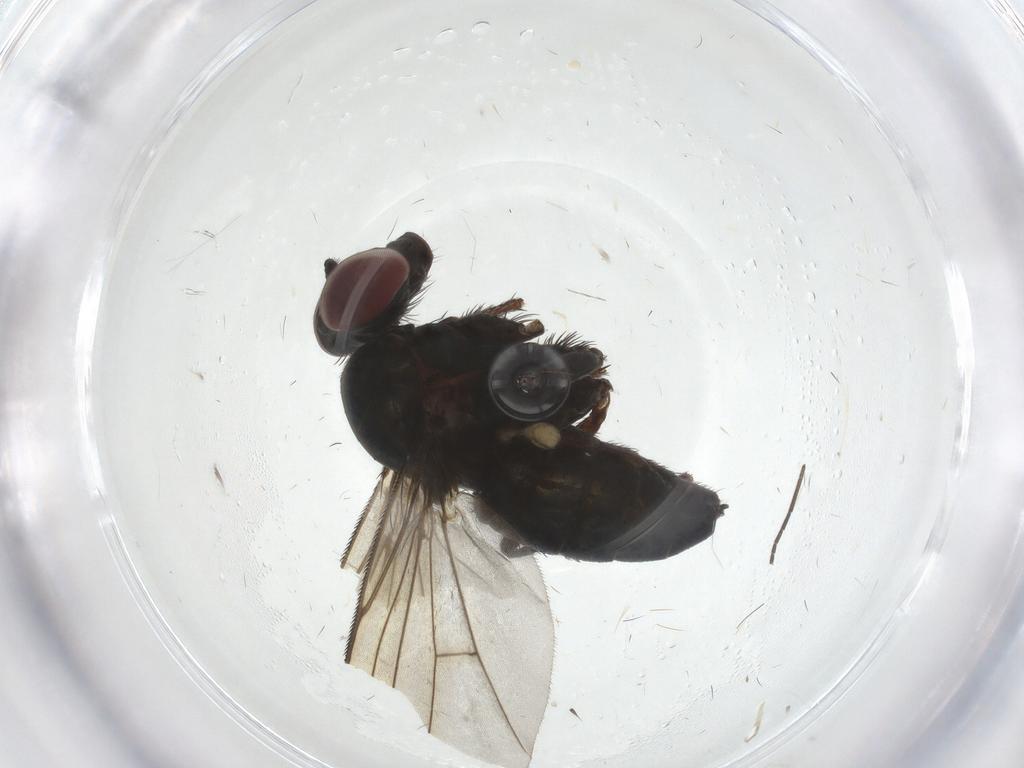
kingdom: Animalia
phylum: Arthropoda
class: Insecta
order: Diptera
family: Dolichopodidae
